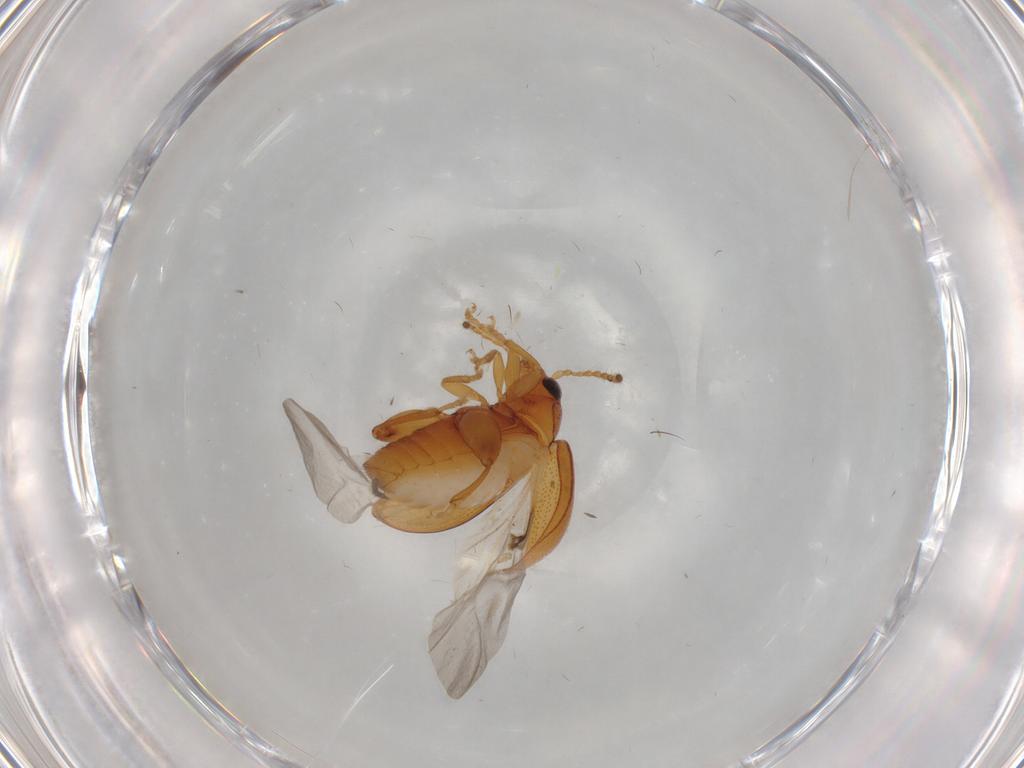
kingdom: Animalia
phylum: Arthropoda
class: Insecta
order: Coleoptera
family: Chrysomelidae
